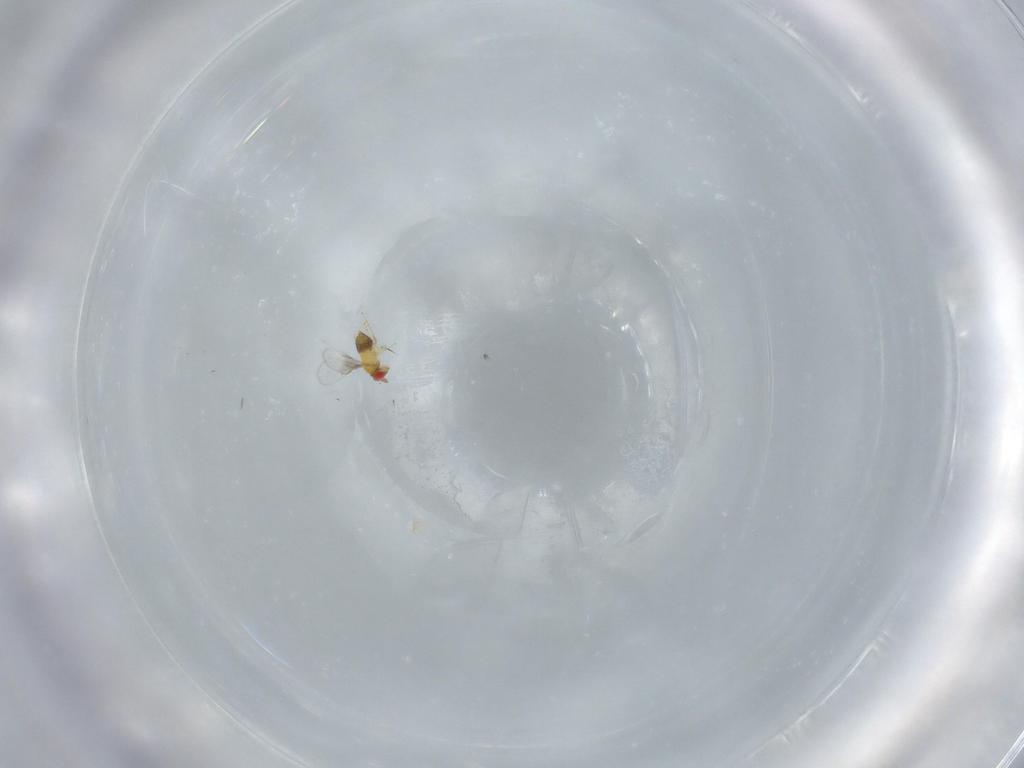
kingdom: Animalia
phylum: Arthropoda
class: Insecta
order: Hymenoptera
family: Trichogrammatidae
